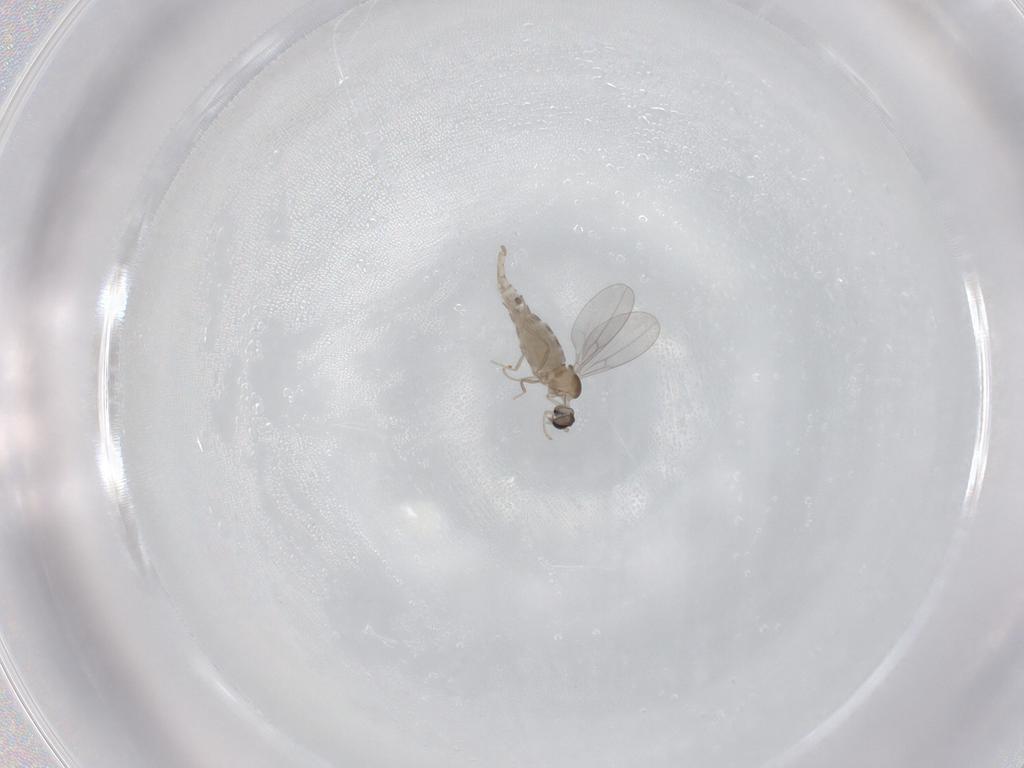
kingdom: Animalia
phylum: Arthropoda
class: Insecta
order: Diptera
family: Cecidomyiidae
